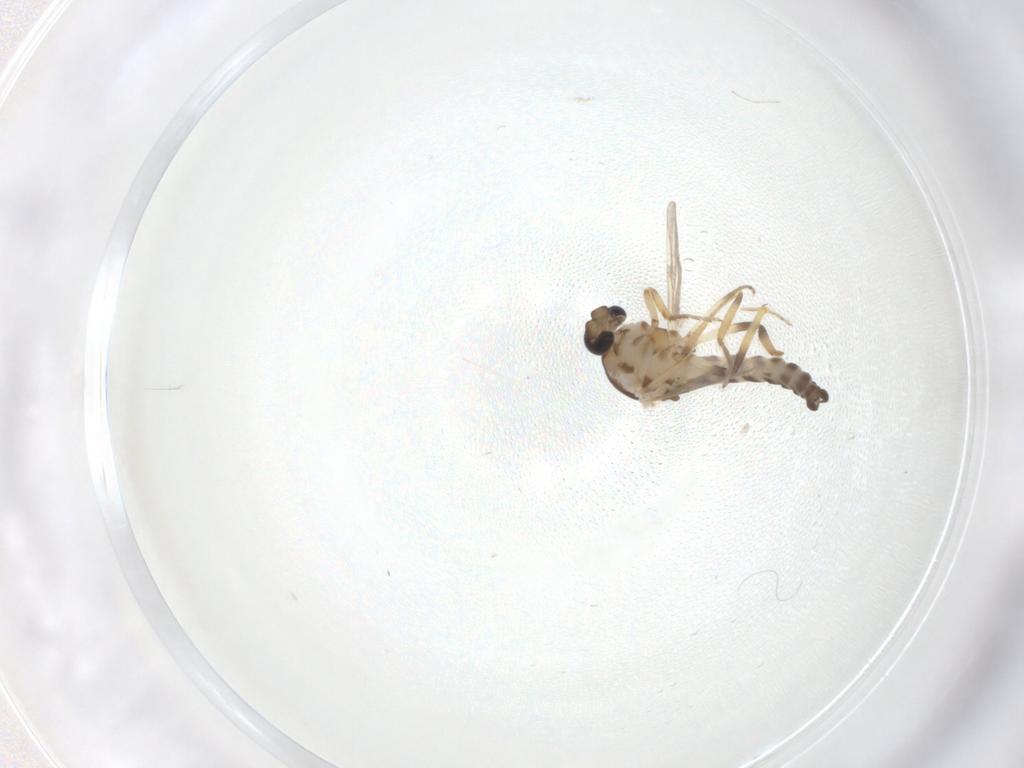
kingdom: Animalia
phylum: Arthropoda
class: Insecta
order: Diptera
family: Ceratopogonidae
